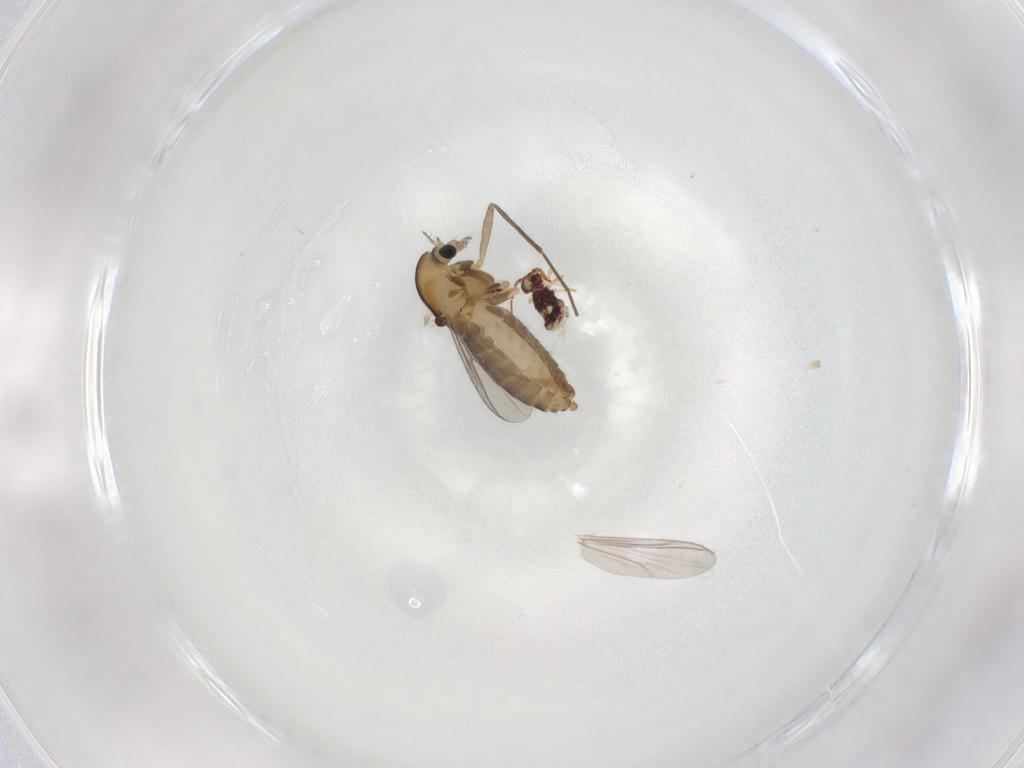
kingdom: Animalia
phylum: Arthropoda
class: Insecta
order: Diptera
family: Chironomidae
